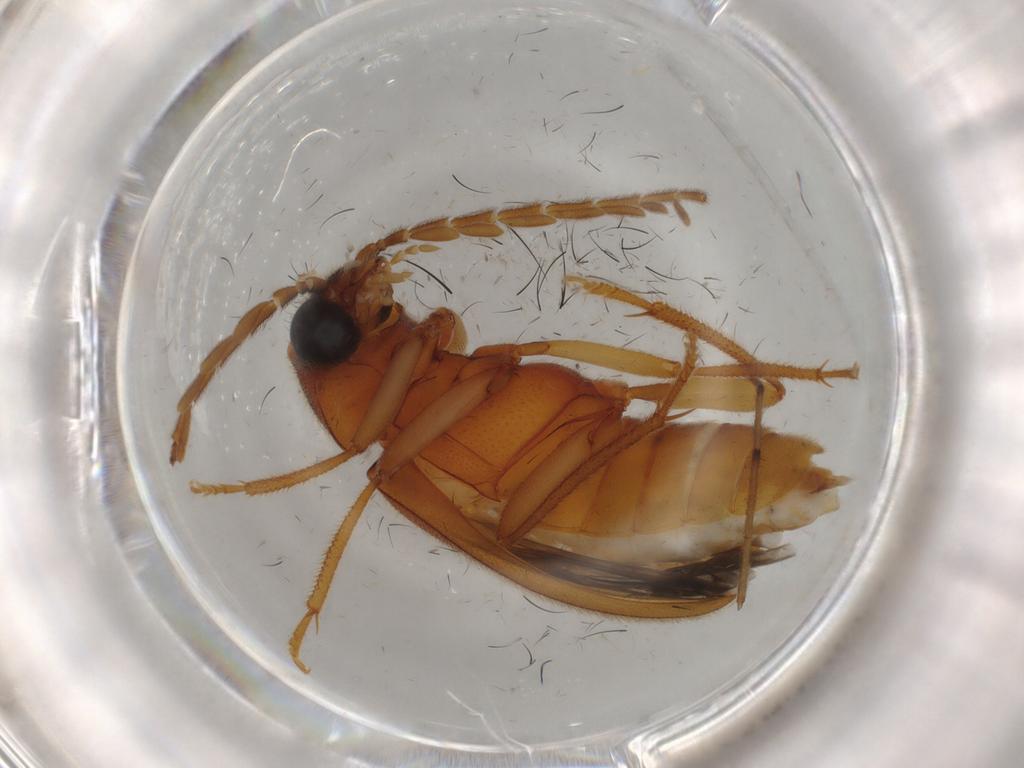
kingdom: Animalia
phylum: Arthropoda
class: Insecta
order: Coleoptera
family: Ptilodactylidae
